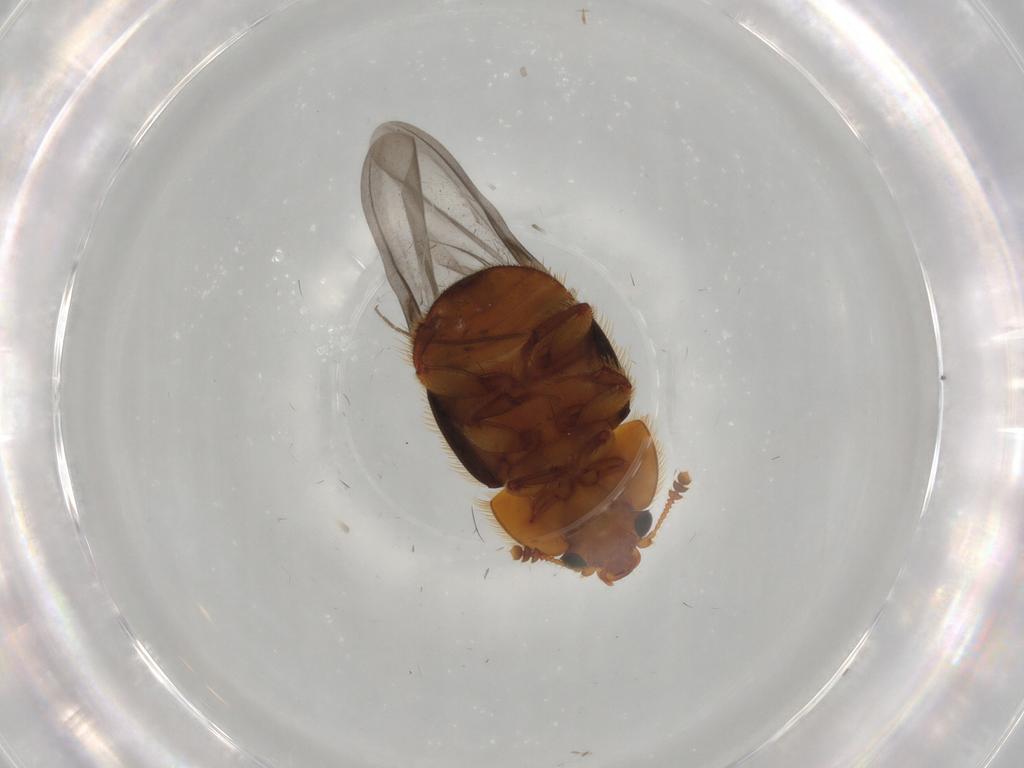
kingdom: Animalia
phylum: Arthropoda
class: Insecta
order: Coleoptera
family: Nitidulidae
